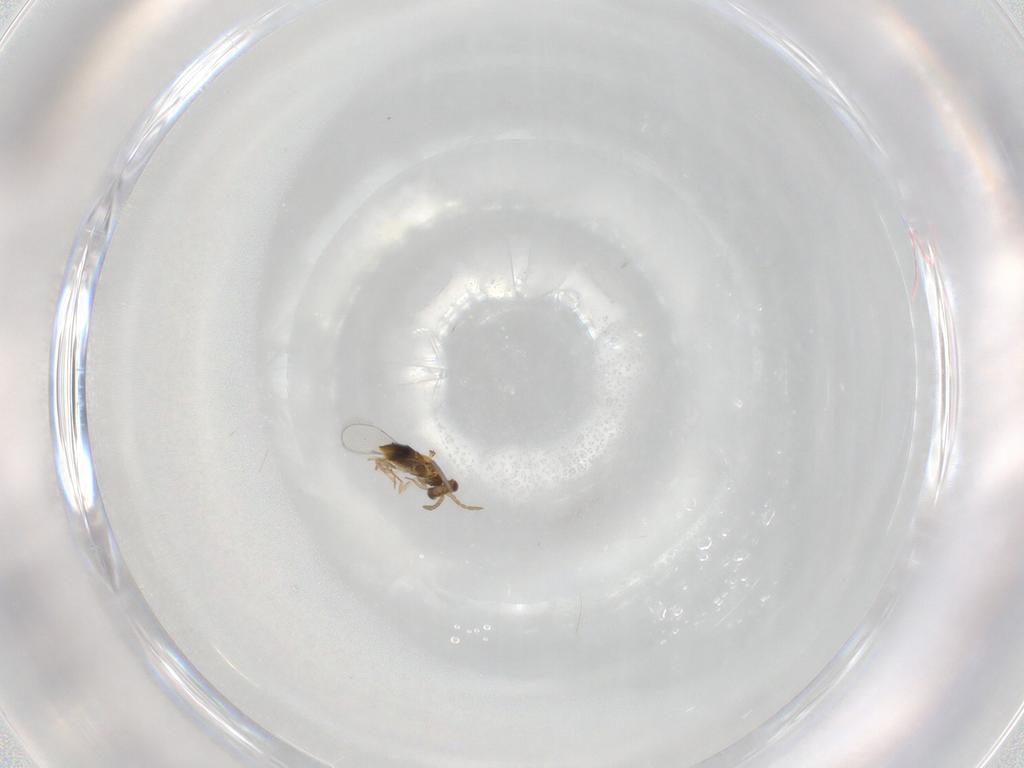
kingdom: Animalia
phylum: Arthropoda
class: Insecta
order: Hymenoptera
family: Aphelinidae
